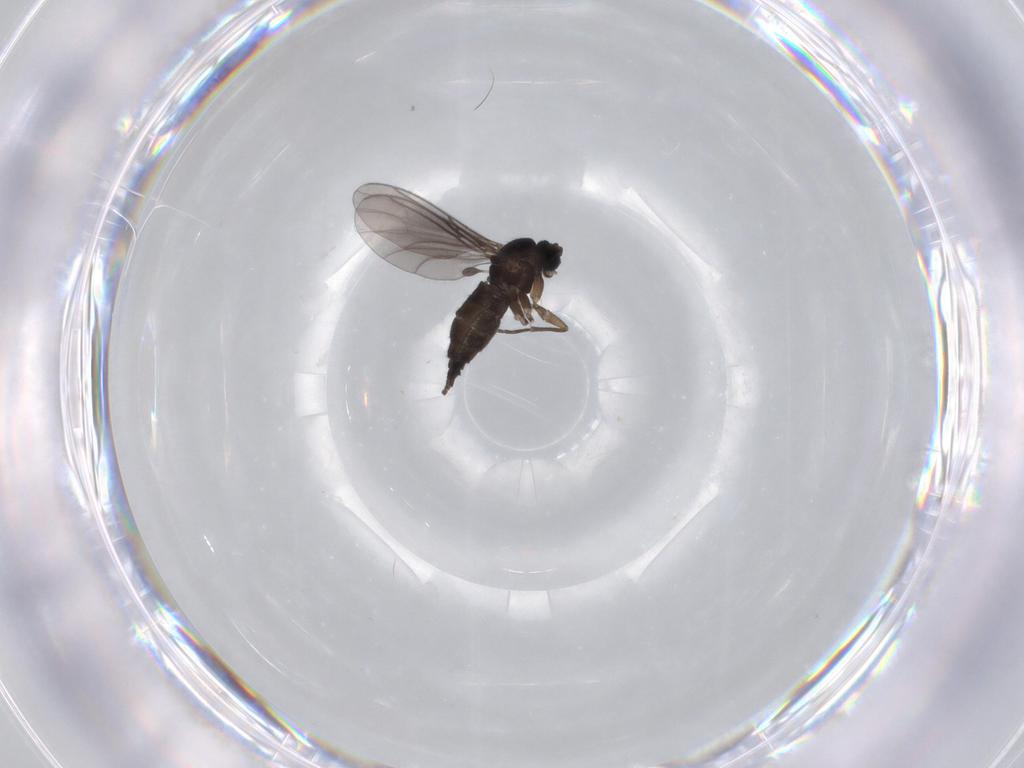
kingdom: Animalia
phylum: Arthropoda
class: Insecta
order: Diptera
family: Sciaridae
